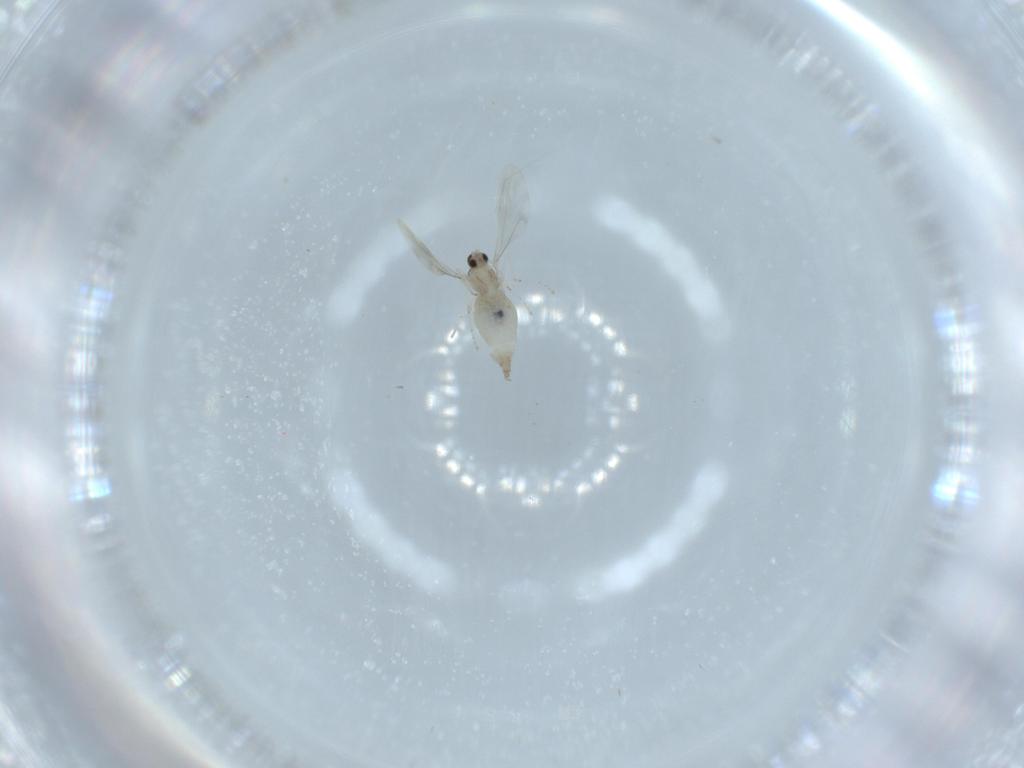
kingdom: Animalia
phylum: Arthropoda
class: Insecta
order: Diptera
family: Cecidomyiidae
